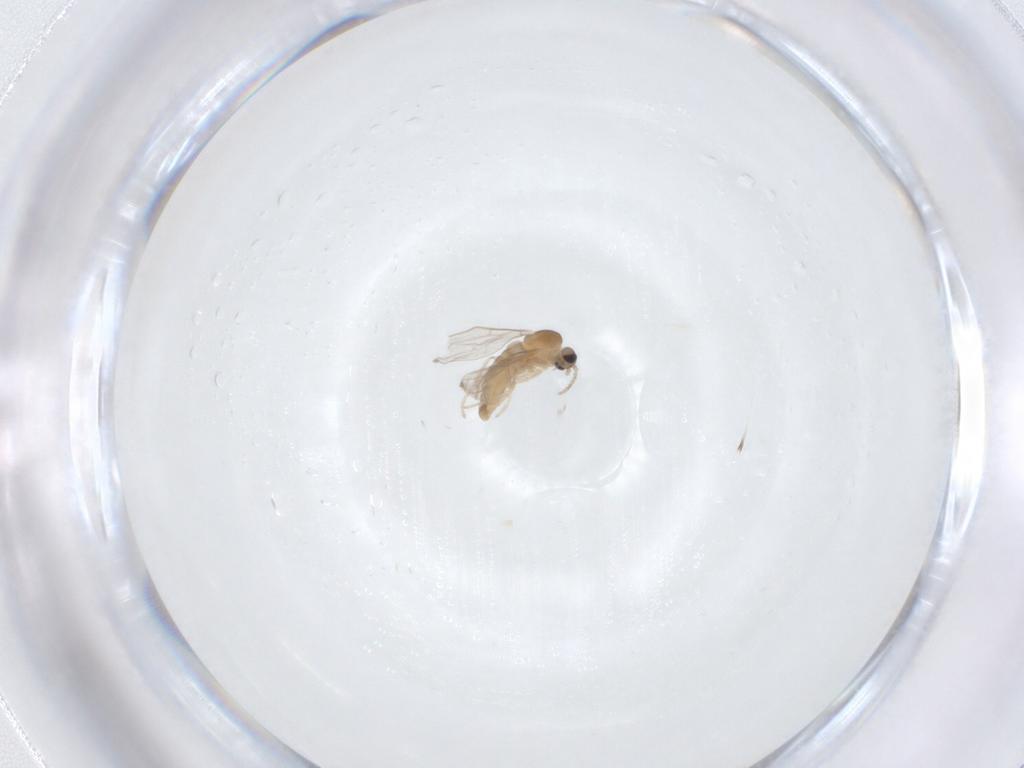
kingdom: Animalia
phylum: Arthropoda
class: Insecta
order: Diptera
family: Cecidomyiidae
